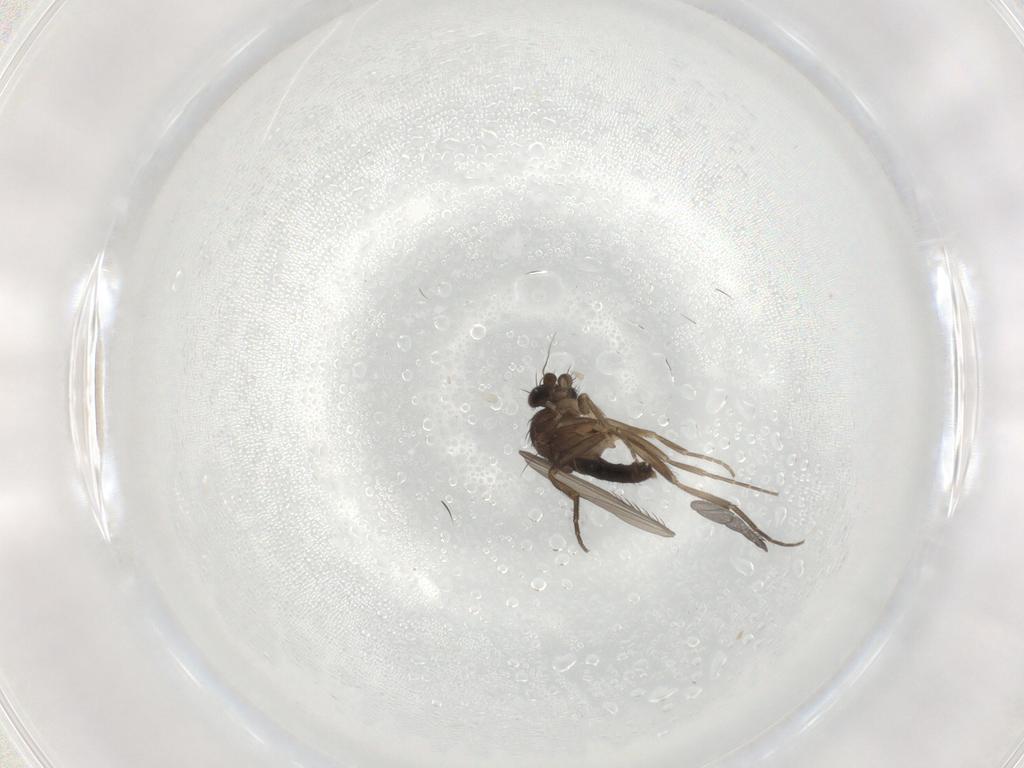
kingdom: Animalia
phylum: Arthropoda
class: Insecta
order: Diptera
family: Phoridae
